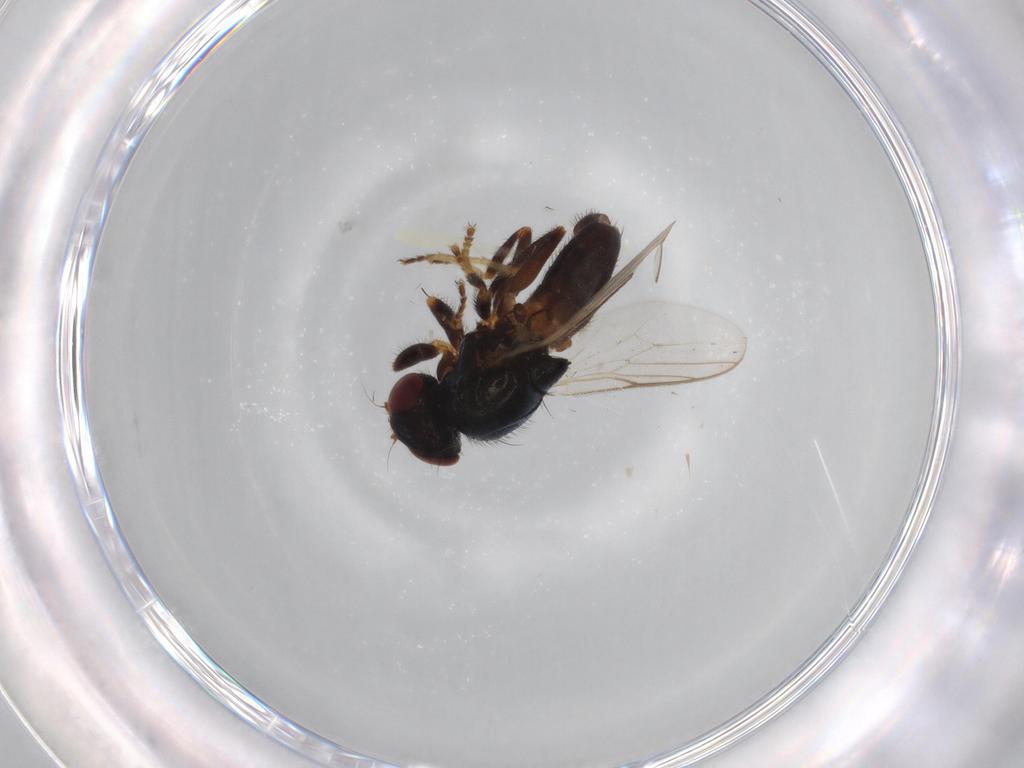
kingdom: Animalia
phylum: Arthropoda
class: Insecta
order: Diptera
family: Chloropidae
